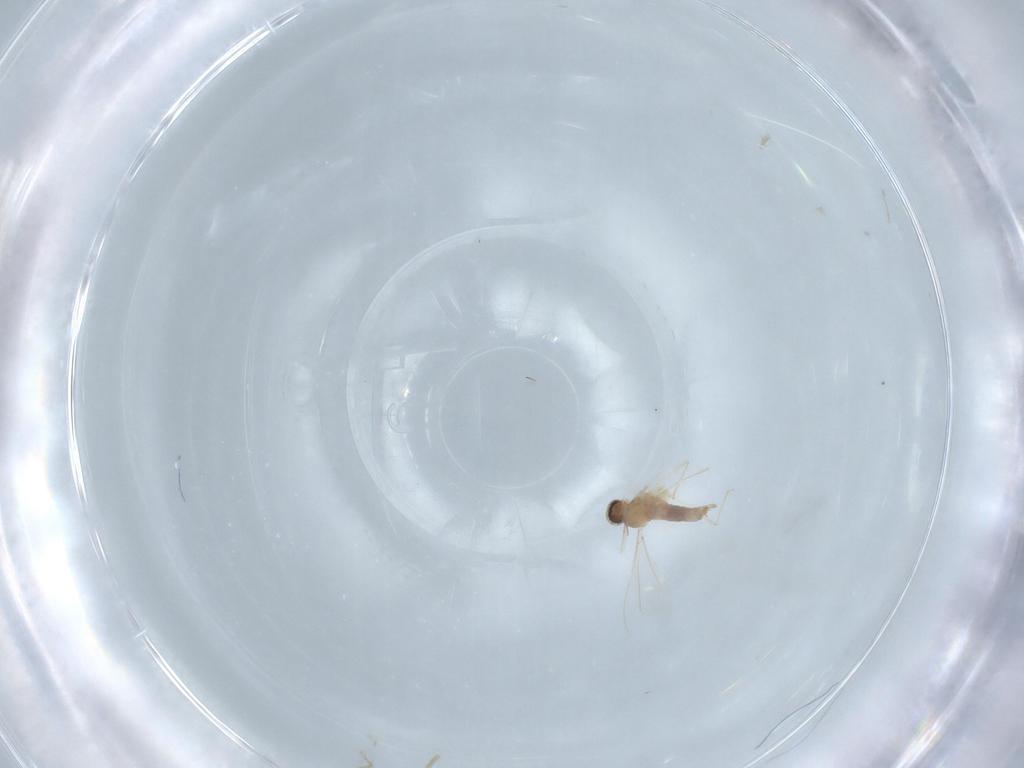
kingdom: Animalia
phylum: Arthropoda
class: Insecta
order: Diptera
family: Cecidomyiidae
